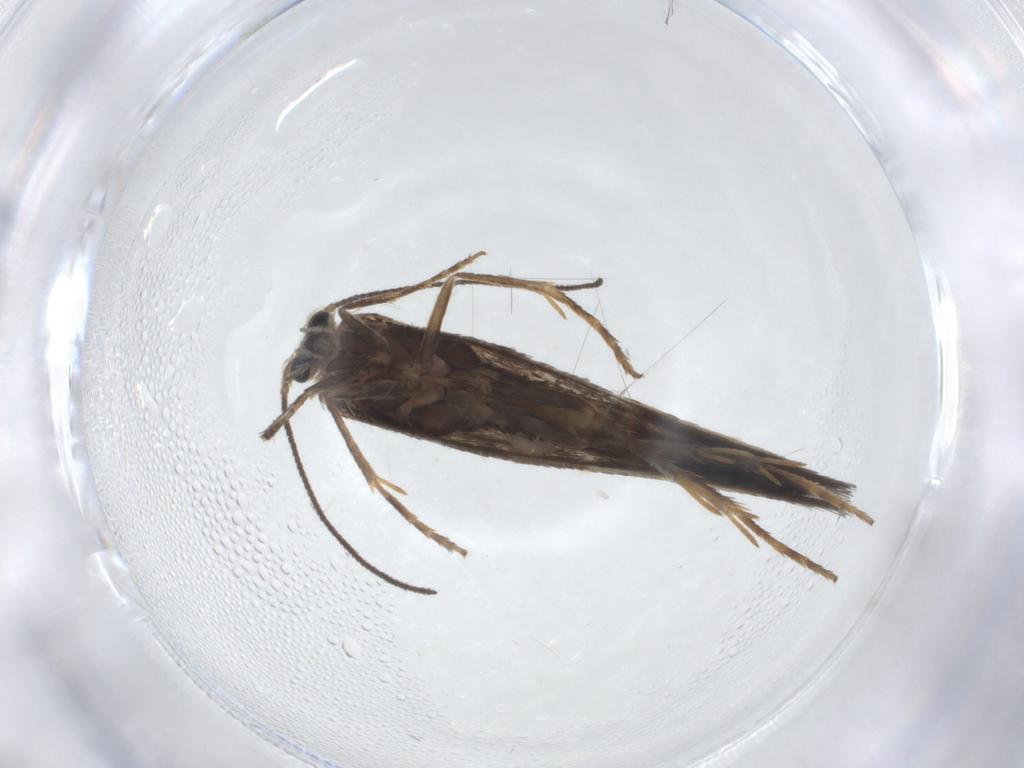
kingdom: Animalia
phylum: Arthropoda
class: Insecta
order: Lepidoptera
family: Nepticulidae
